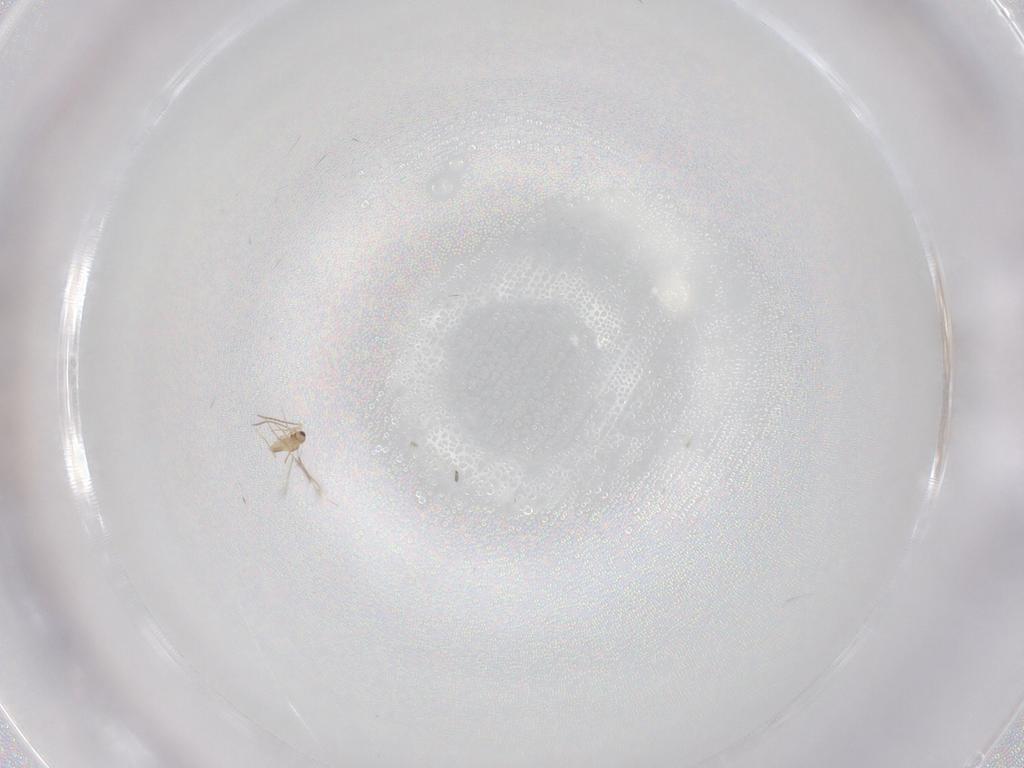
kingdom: Animalia
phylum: Arthropoda
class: Insecta
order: Hymenoptera
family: Mymaridae
